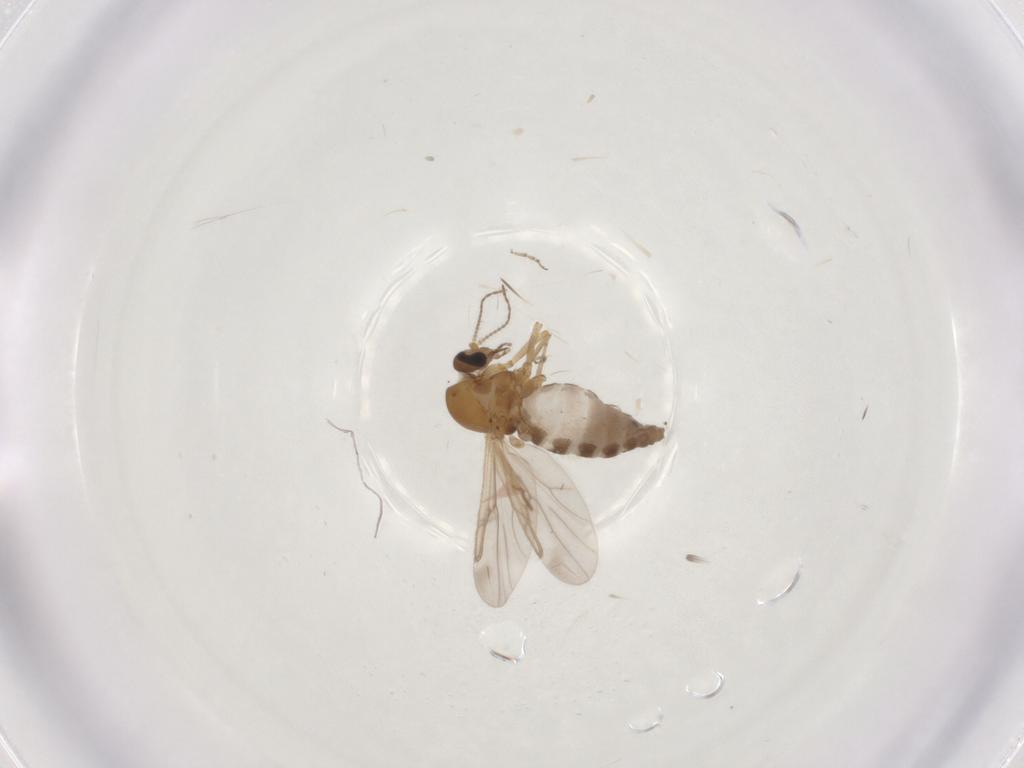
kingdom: Animalia
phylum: Arthropoda
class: Insecta
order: Diptera
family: Ceratopogonidae
